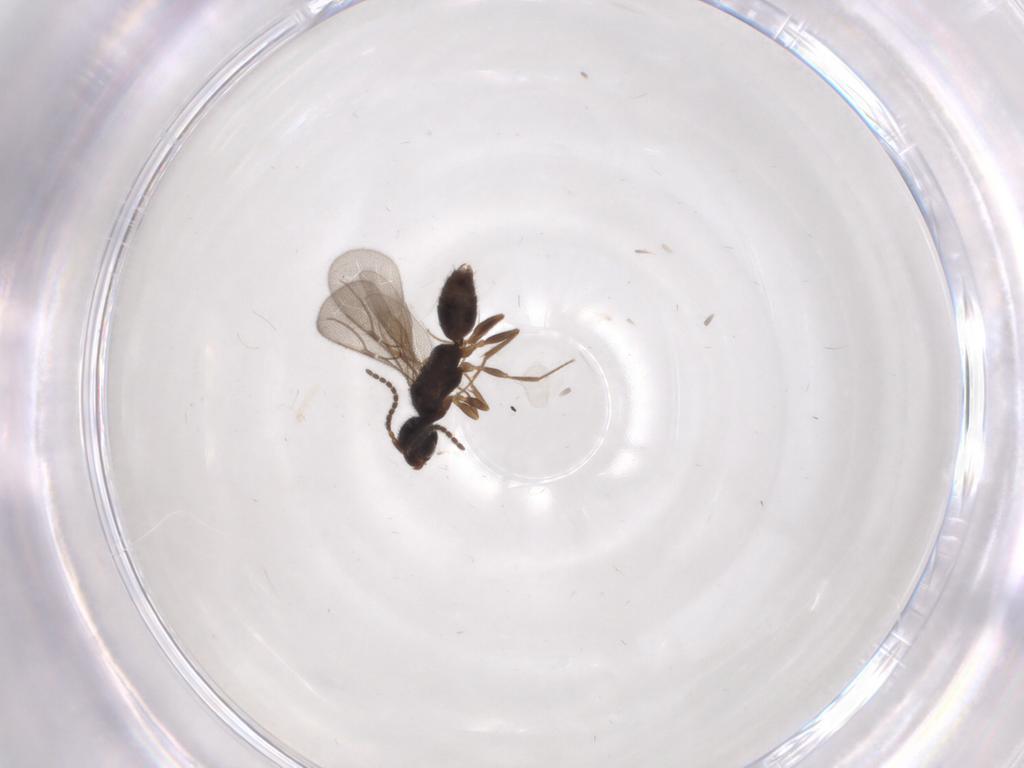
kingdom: Animalia
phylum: Arthropoda
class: Insecta
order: Hymenoptera
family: Bethylidae
